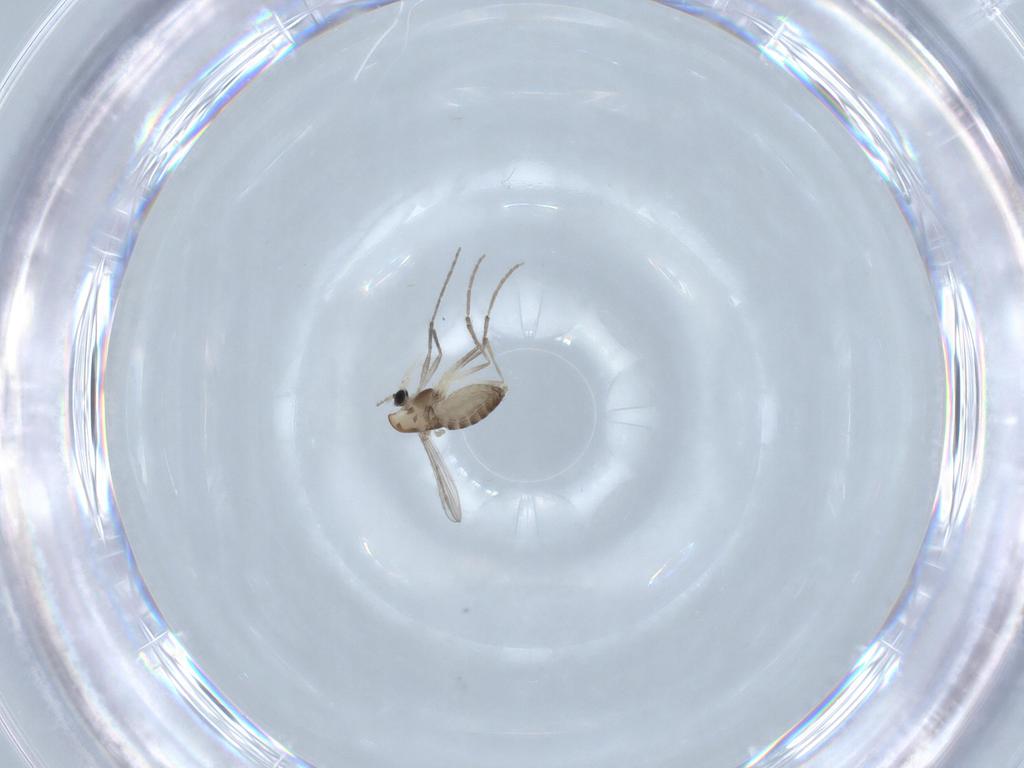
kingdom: Animalia
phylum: Arthropoda
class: Insecta
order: Diptera
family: Chironomidae
